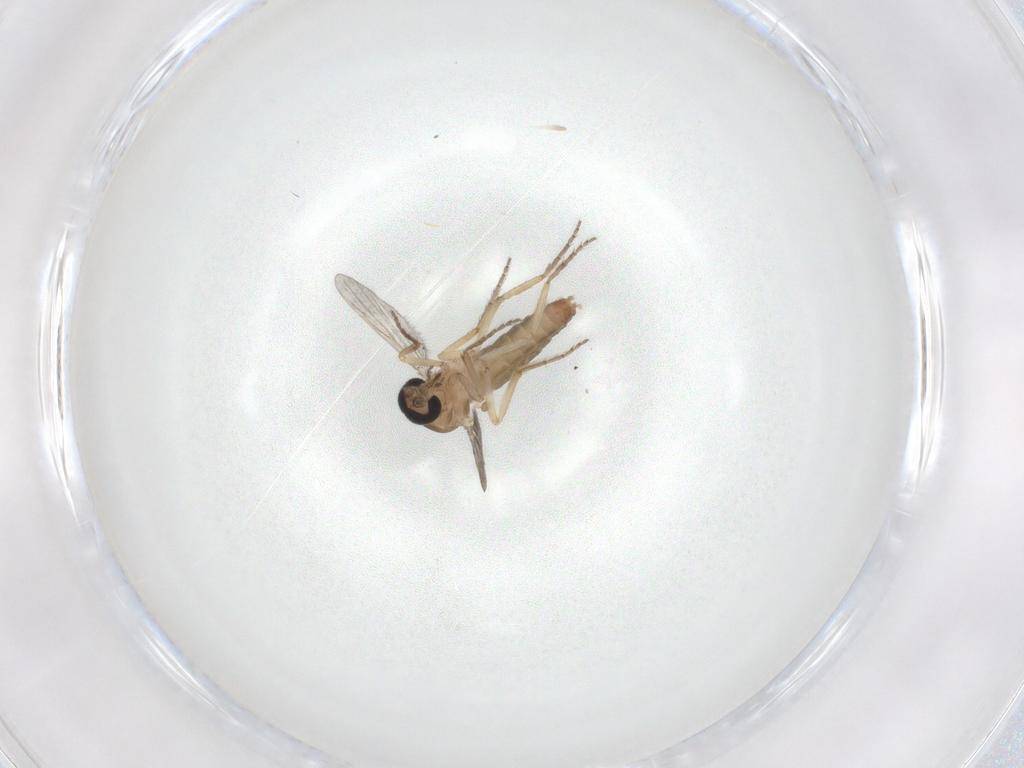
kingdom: Animalia
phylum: Arthropoda
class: Insecta
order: Diptera
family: Ceratopogonidae
